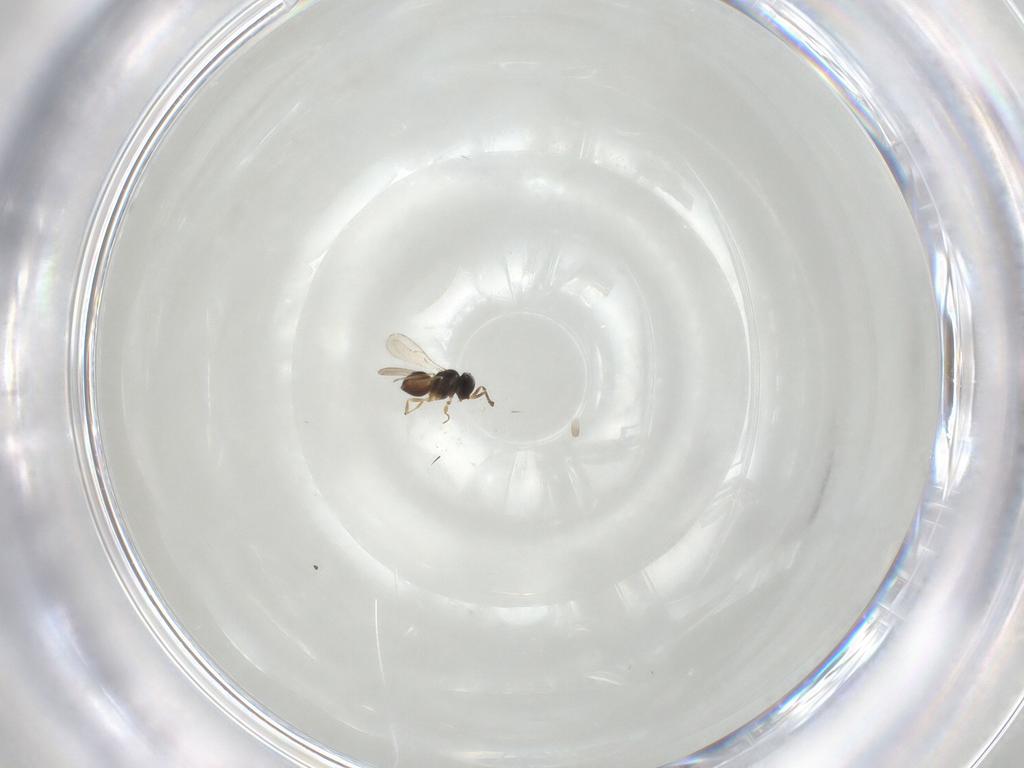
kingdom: Animalia
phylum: Arthropoda
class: Insecta
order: Hymenoptera
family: Scelionidae
